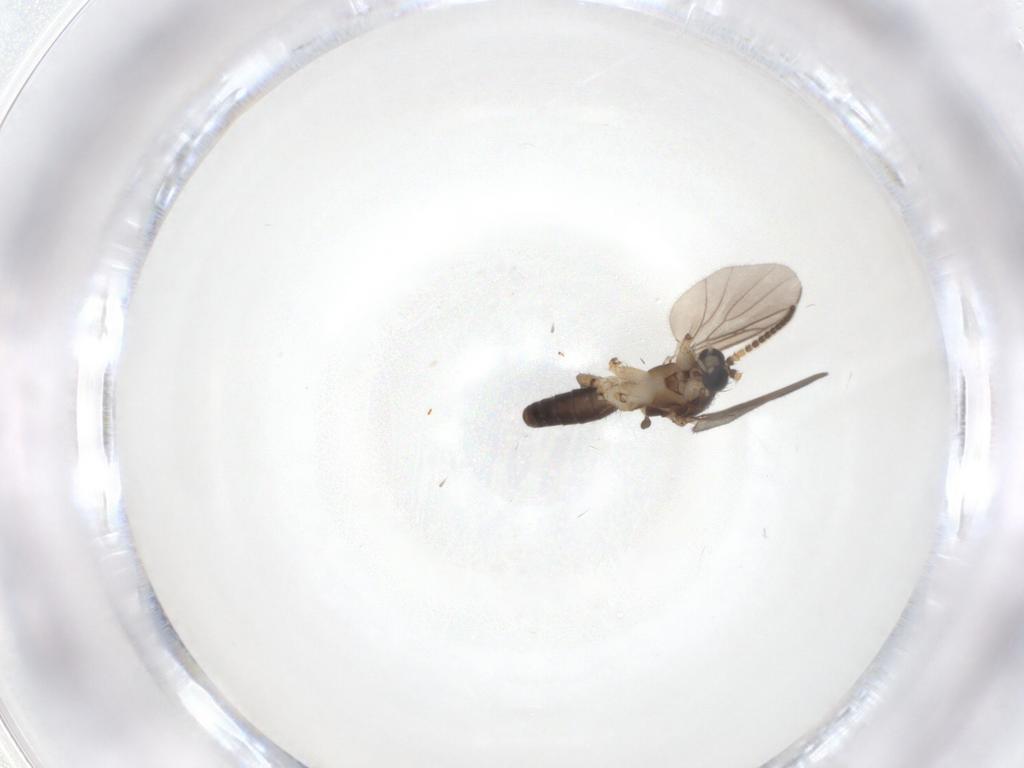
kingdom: Animalia
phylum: Arthropoda
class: Insecta
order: Diptera
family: Mycetophilidae
